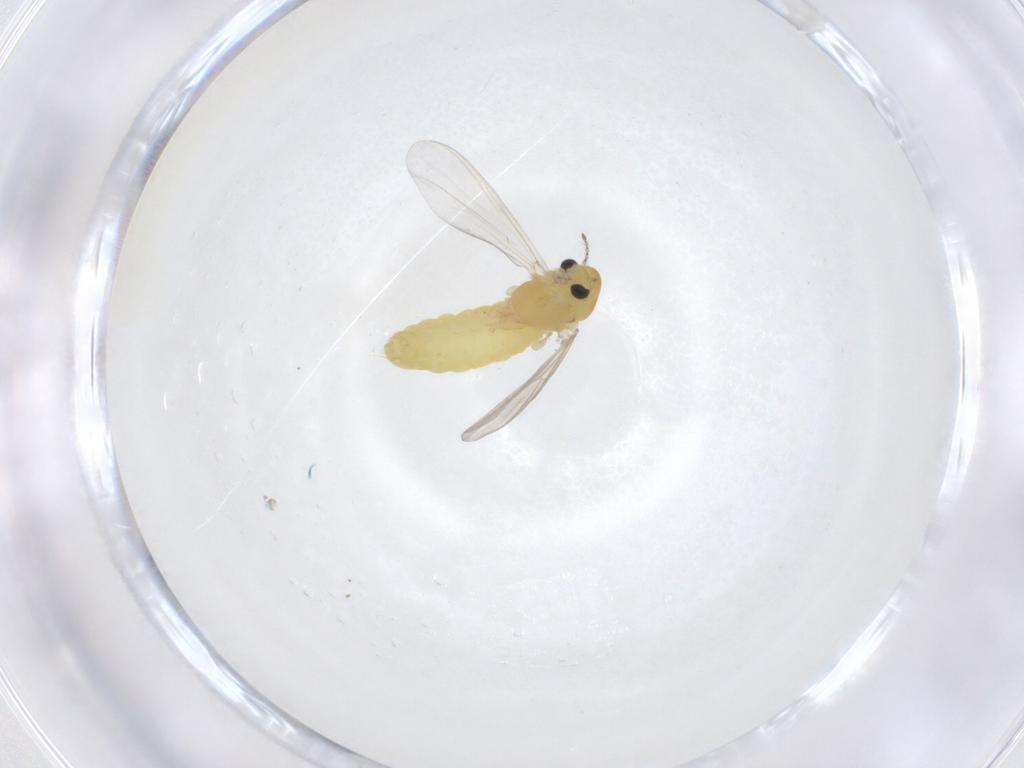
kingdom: Animalia
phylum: Arthropoda
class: Insecta
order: Diptera
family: Chironomidae
